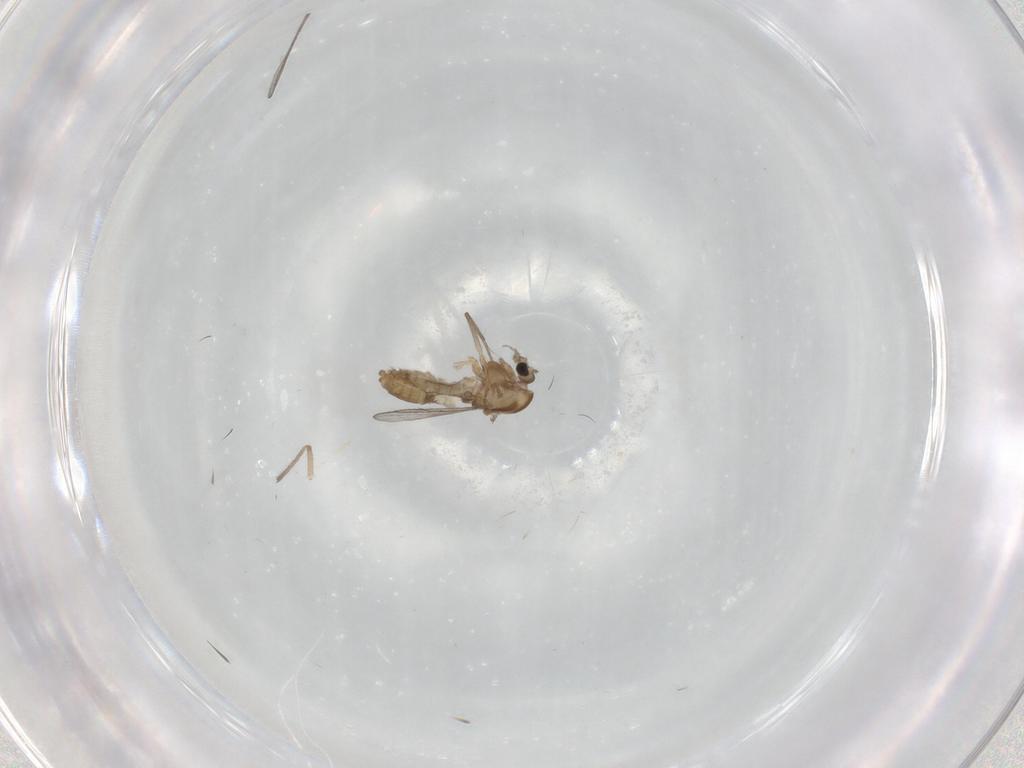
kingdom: Animalia
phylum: Arthropoda
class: Insecta
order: Diptera
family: Chironomidae
